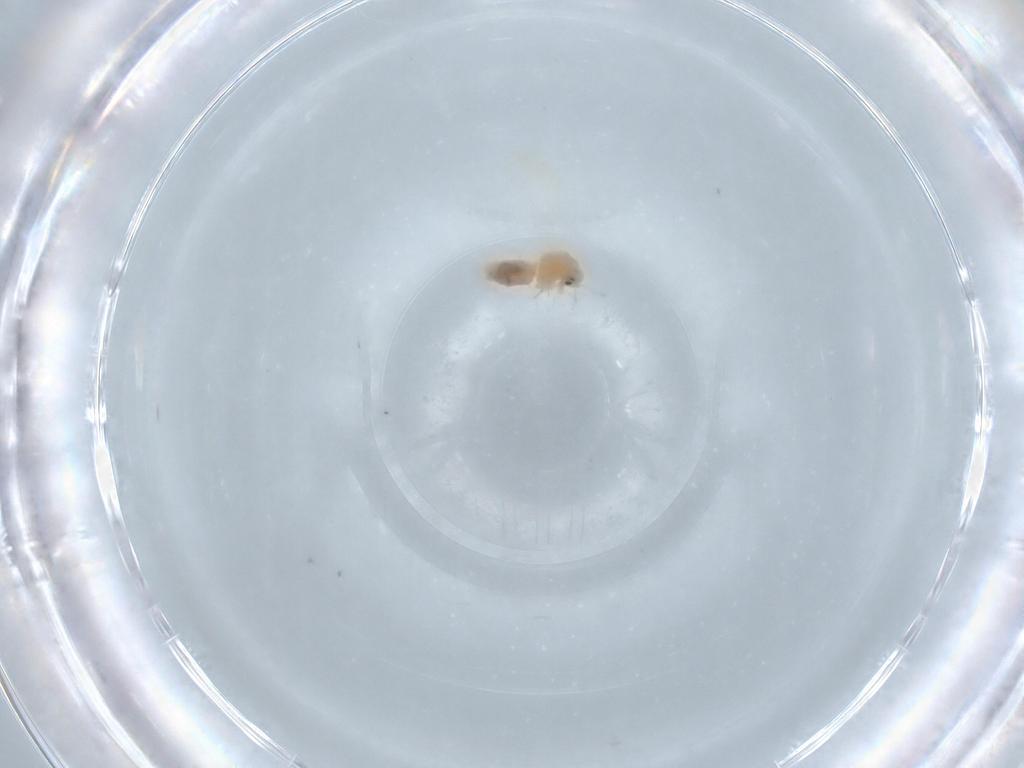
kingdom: Animalia
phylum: Arthropoda
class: Insecta
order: Hemiptera
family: Aleyrodidae
